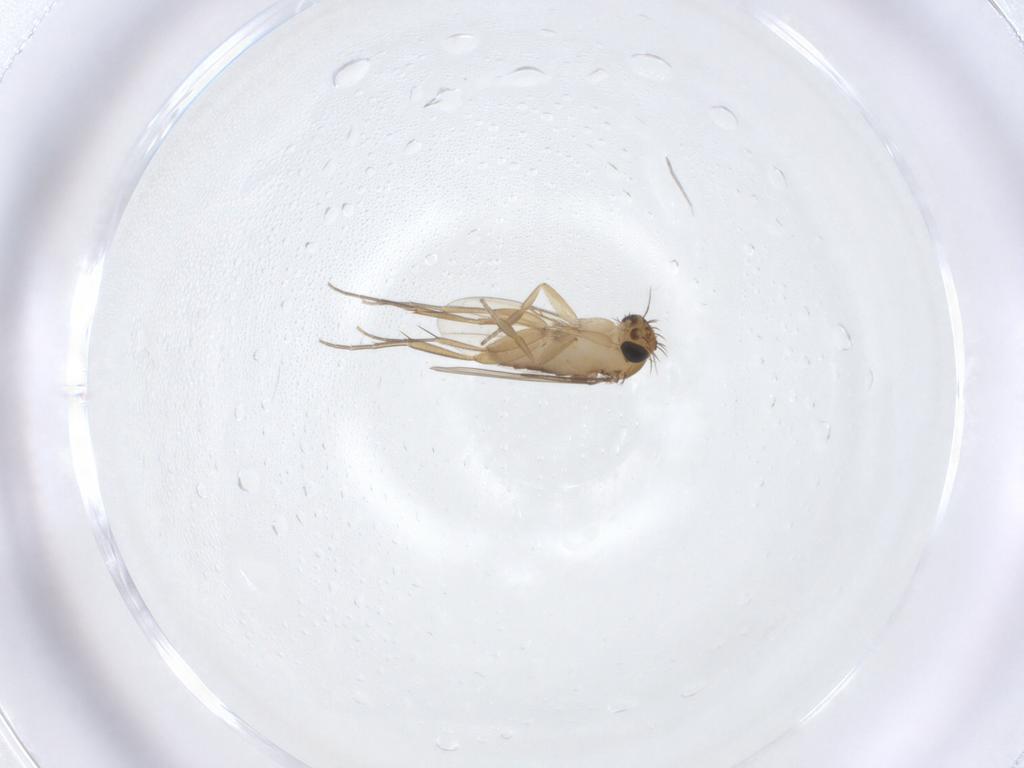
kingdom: Animalia
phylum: Arthropoda
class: Insecta
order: Diptera
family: Phoridae
